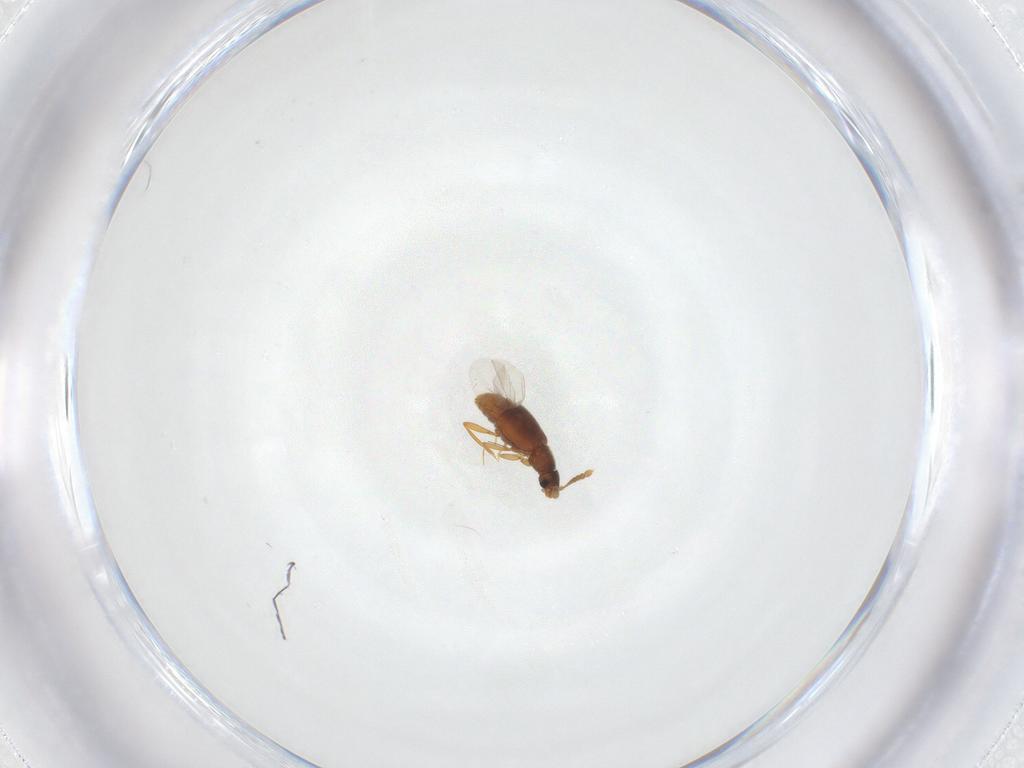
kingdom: Animalia
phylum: Arthropoda
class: Insecta
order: Coleoptera
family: Staphylinidae
